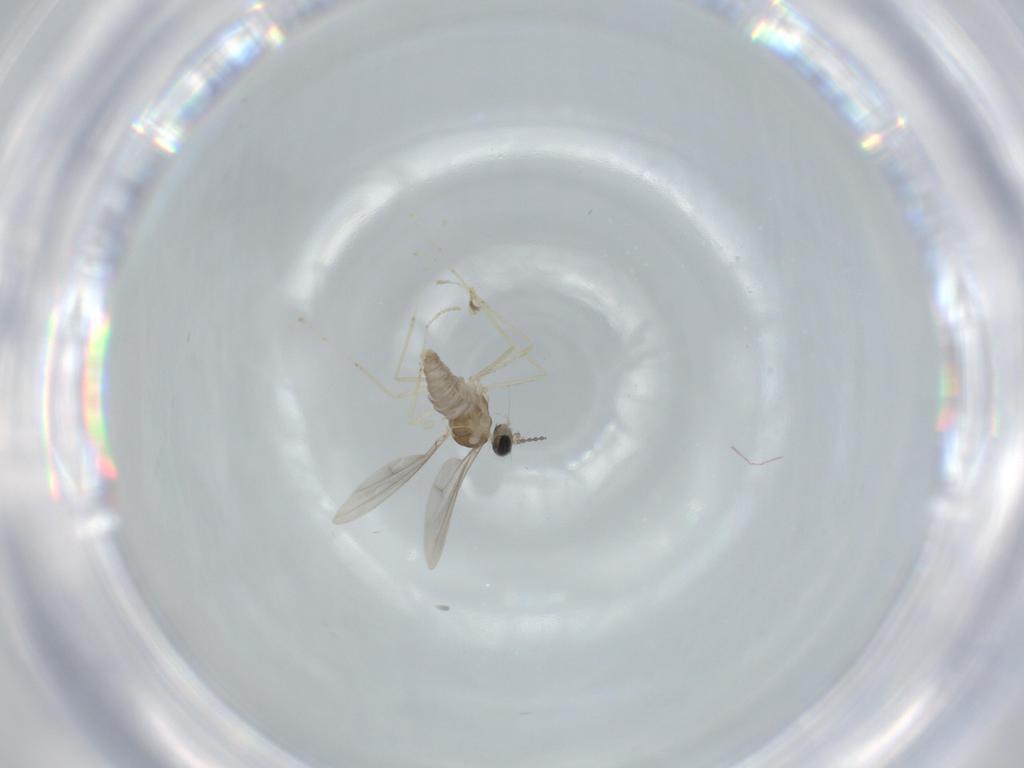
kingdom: Animalia
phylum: Arthropoda
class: Insecta
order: Diptera
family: Cecidomyiidae
